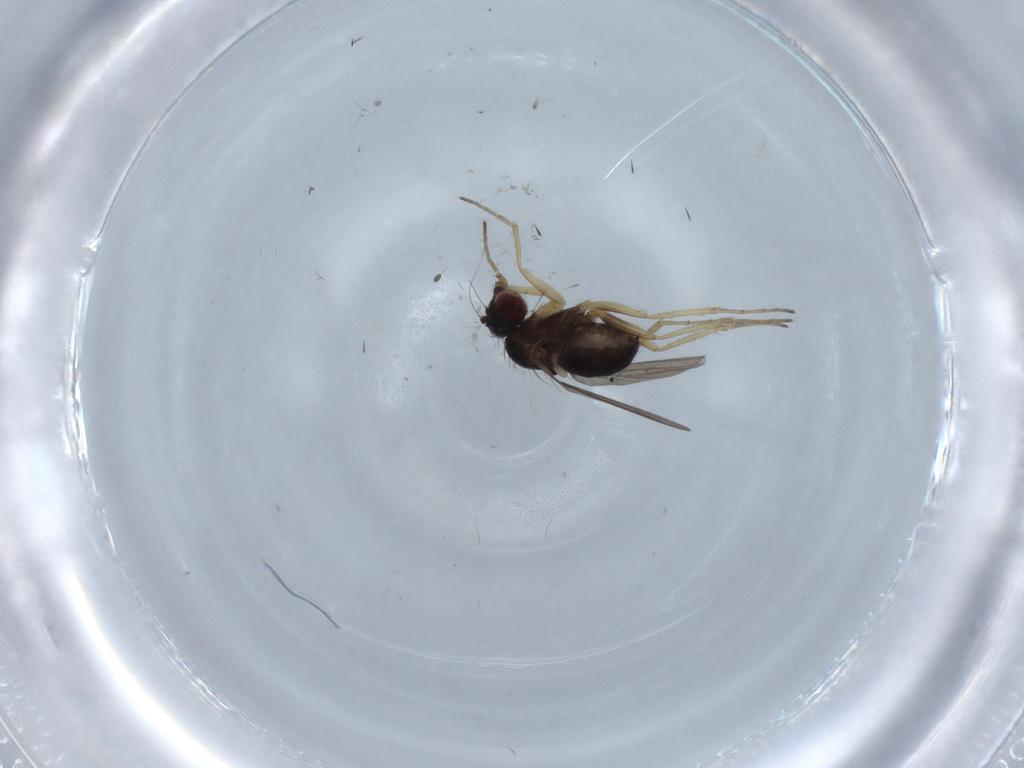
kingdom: Animalia
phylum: Arthropoda
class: Insecta
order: Diptera
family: Dolichopodidae
